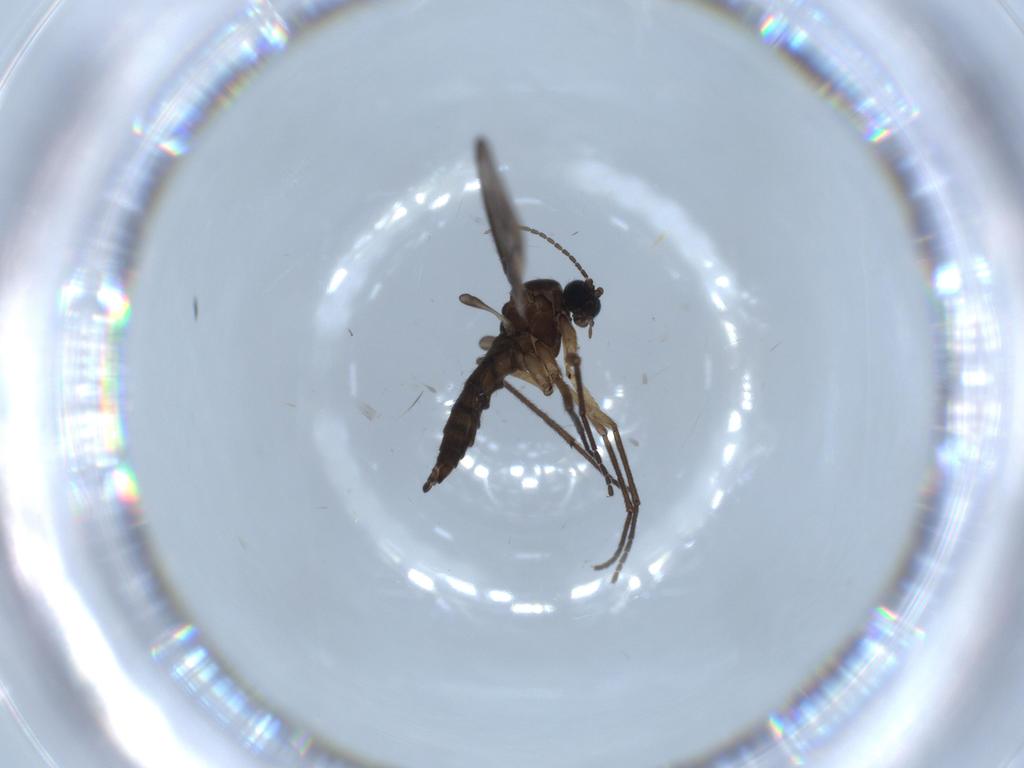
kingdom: Animalia
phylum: Arthropoda
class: Insecta
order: Diptera
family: Sciaridae
